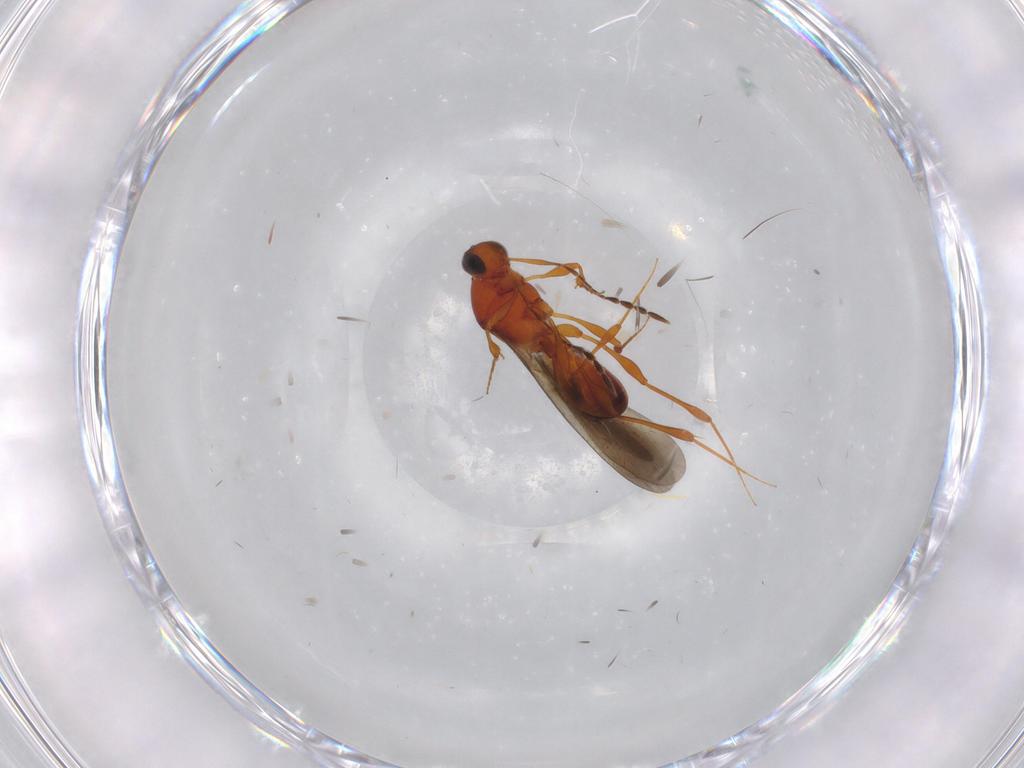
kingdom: Animalia
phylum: Arthropoda
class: Insecta
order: Hymenoptera
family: Platygastridae
